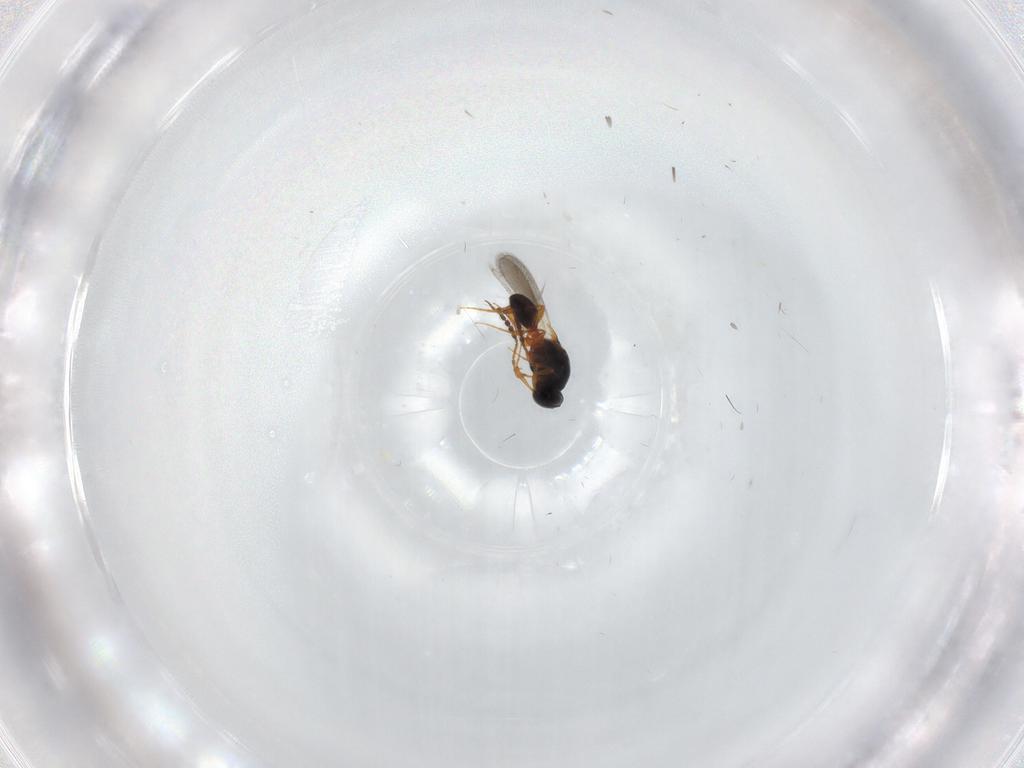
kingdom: Animalia
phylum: Arthropoda
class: Insecta
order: Hymenoptera
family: Platygastridae
